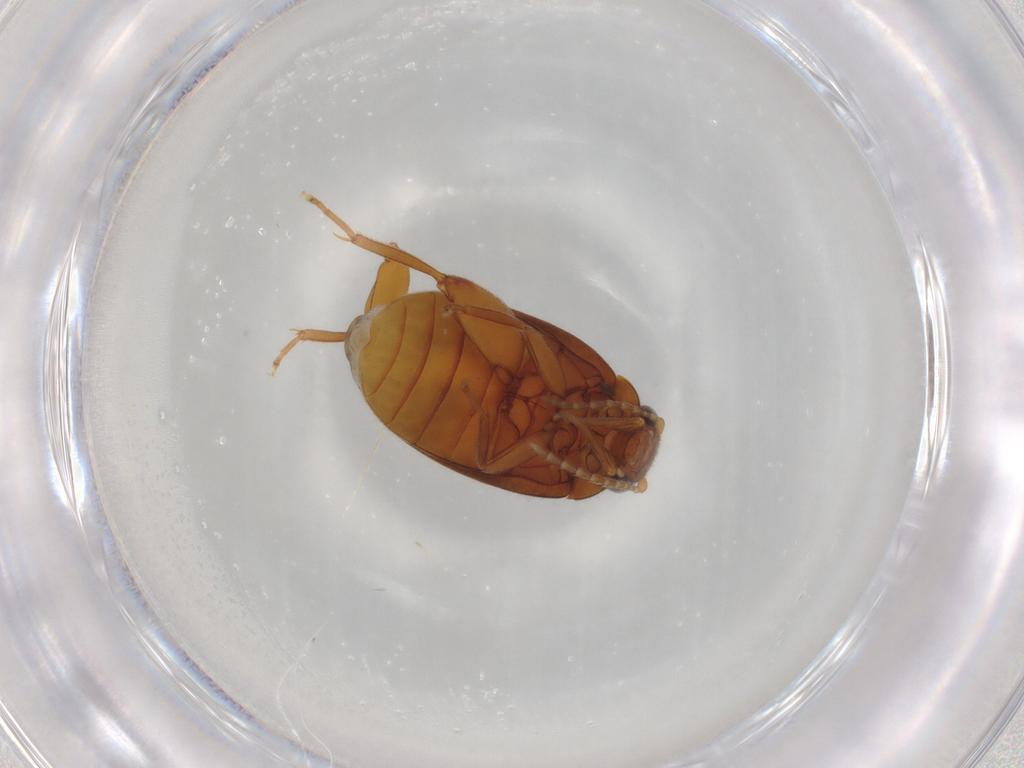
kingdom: Animalia
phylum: Arthropoda
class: Insecta
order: Coleoptera
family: Scirtidae
